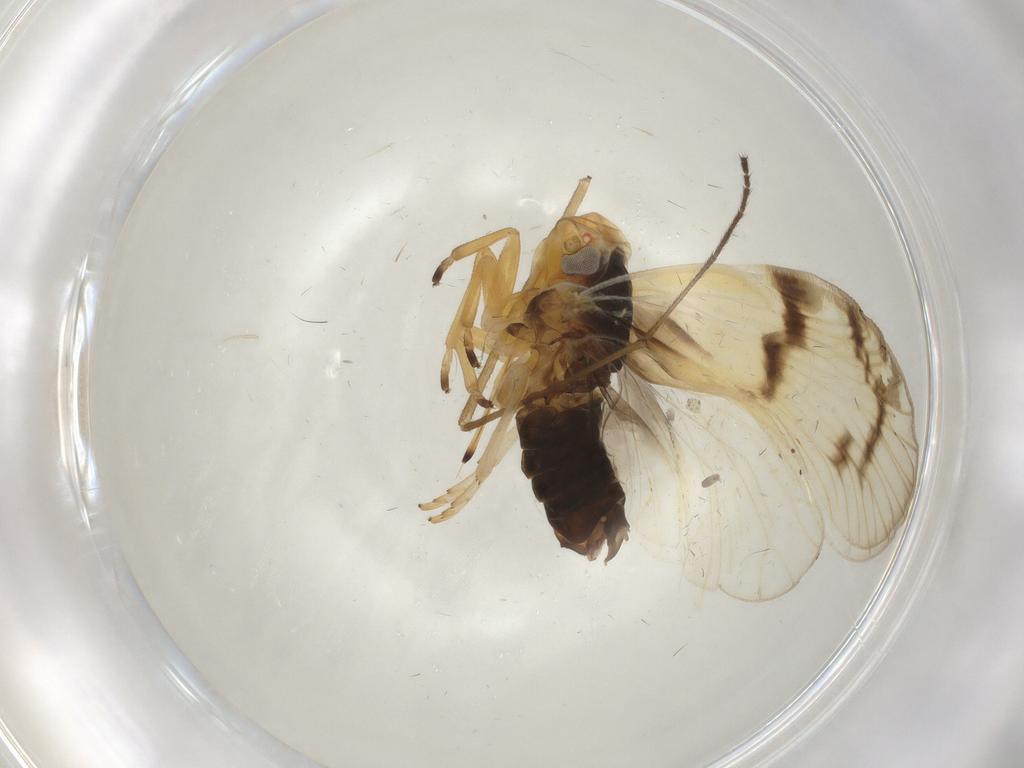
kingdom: Animalia
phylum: Arthropoda
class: Insecta
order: Hemiptera
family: Cixiidae
